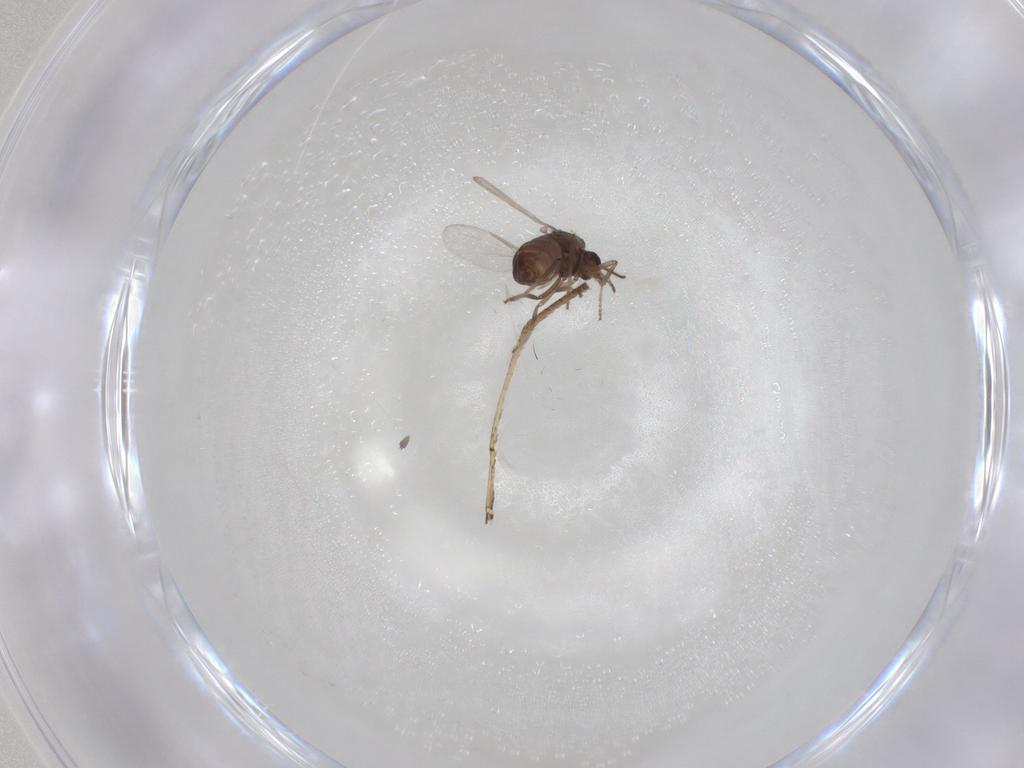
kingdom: Animalia
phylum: Arthropoda
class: Insecta
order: Diptera
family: Ceratopogonidae
